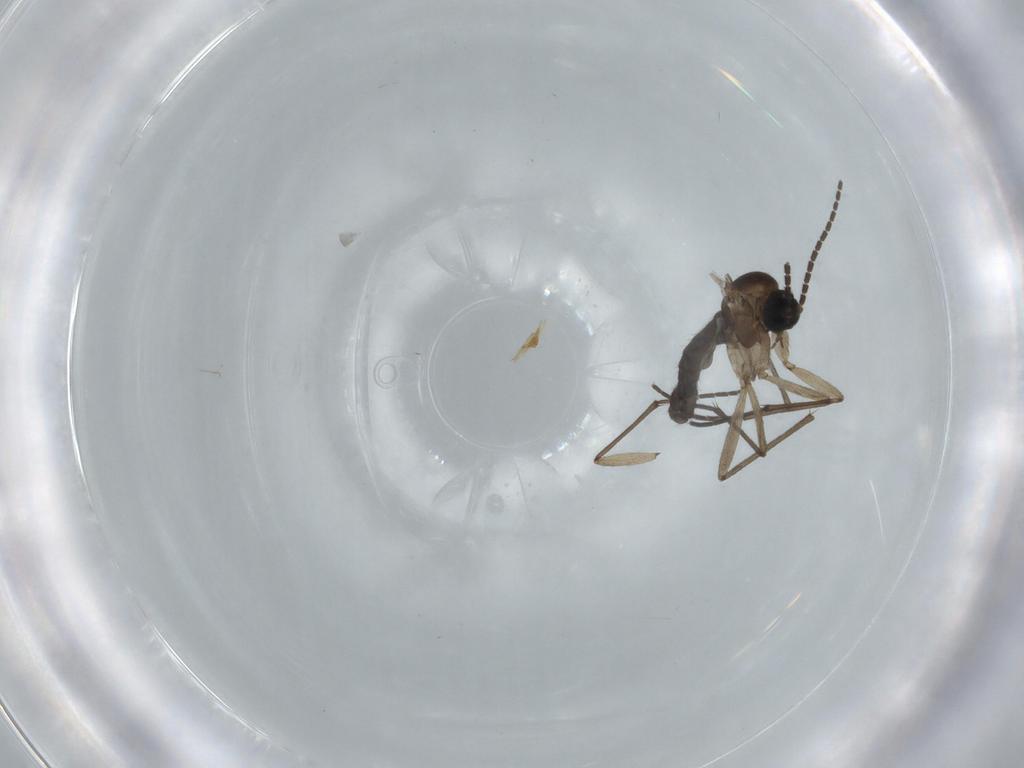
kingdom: Animalia
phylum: Arthropoda
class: Insecta
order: Diptera
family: Sciaridae
